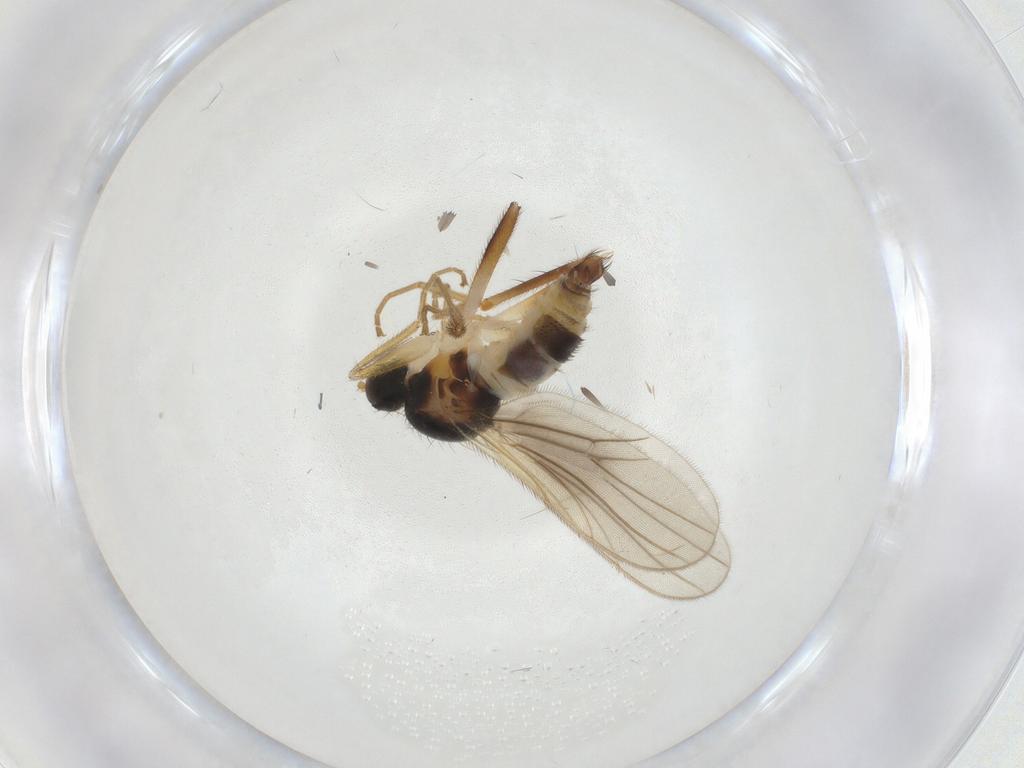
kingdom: Animalia
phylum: Arthropoda
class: Insecta
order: Diptera
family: Hybotidae
